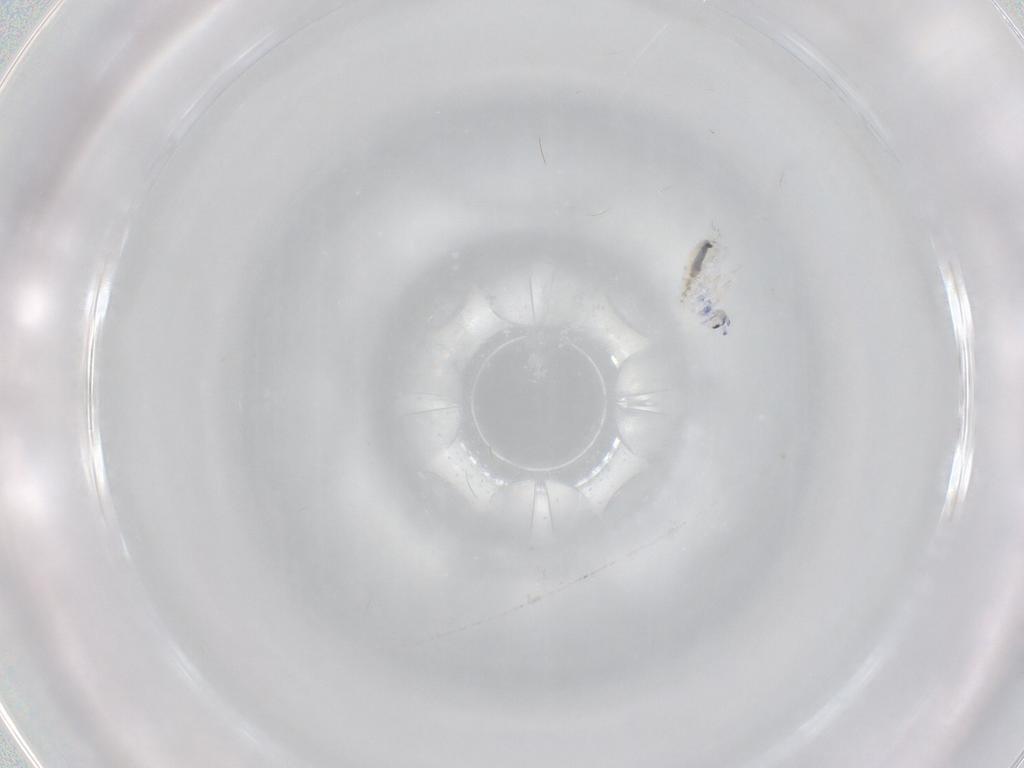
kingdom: Animalia
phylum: Arthropoda
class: Collembola
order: Entomobryomorpha
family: Entomobryidae
